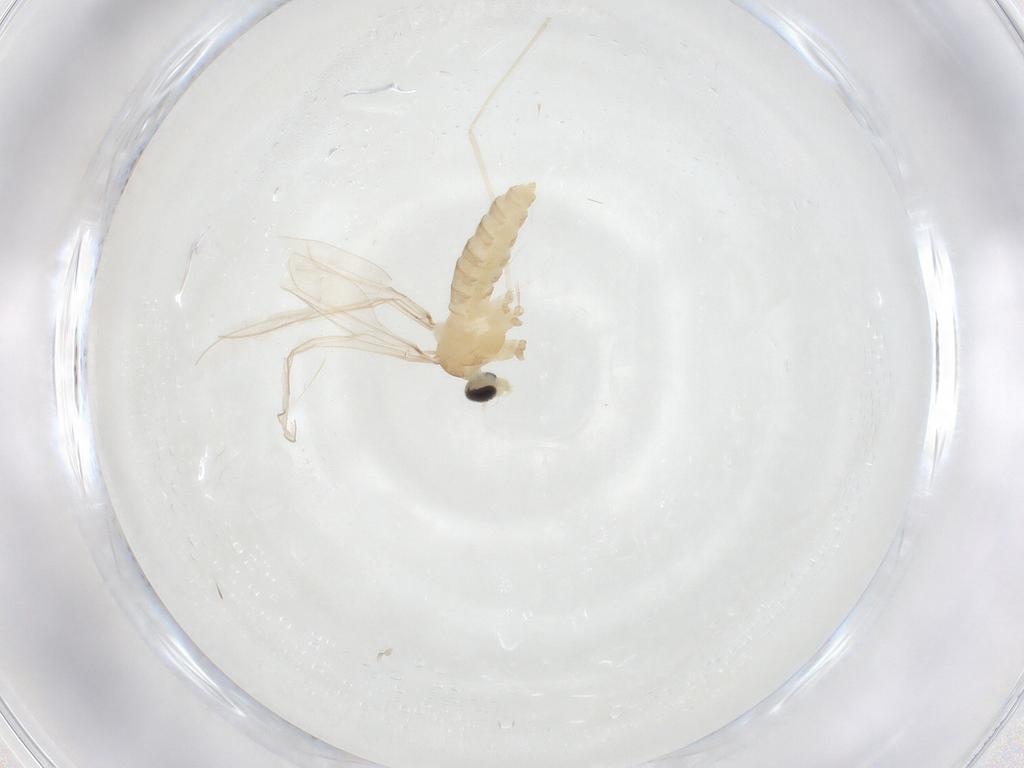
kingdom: Animalia
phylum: Arthropoda
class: Insecta
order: Diptera
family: Cecidomyiidae
